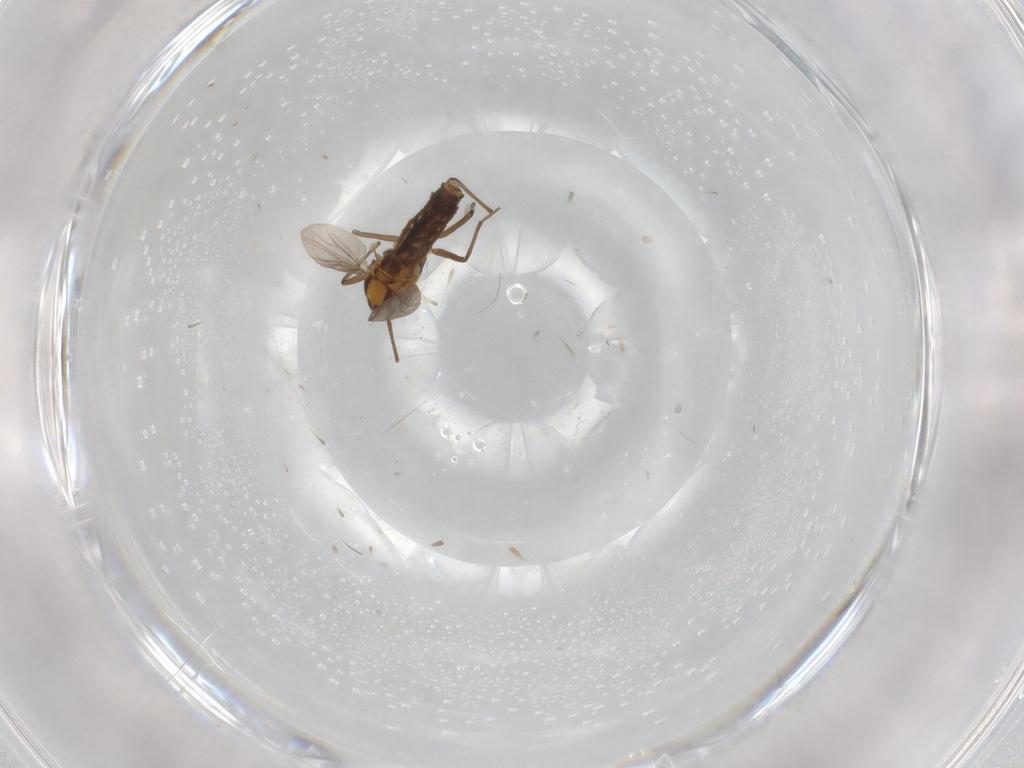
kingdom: Animalia
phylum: Arthropoda
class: Insecta
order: Diptera
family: Chironomidae
